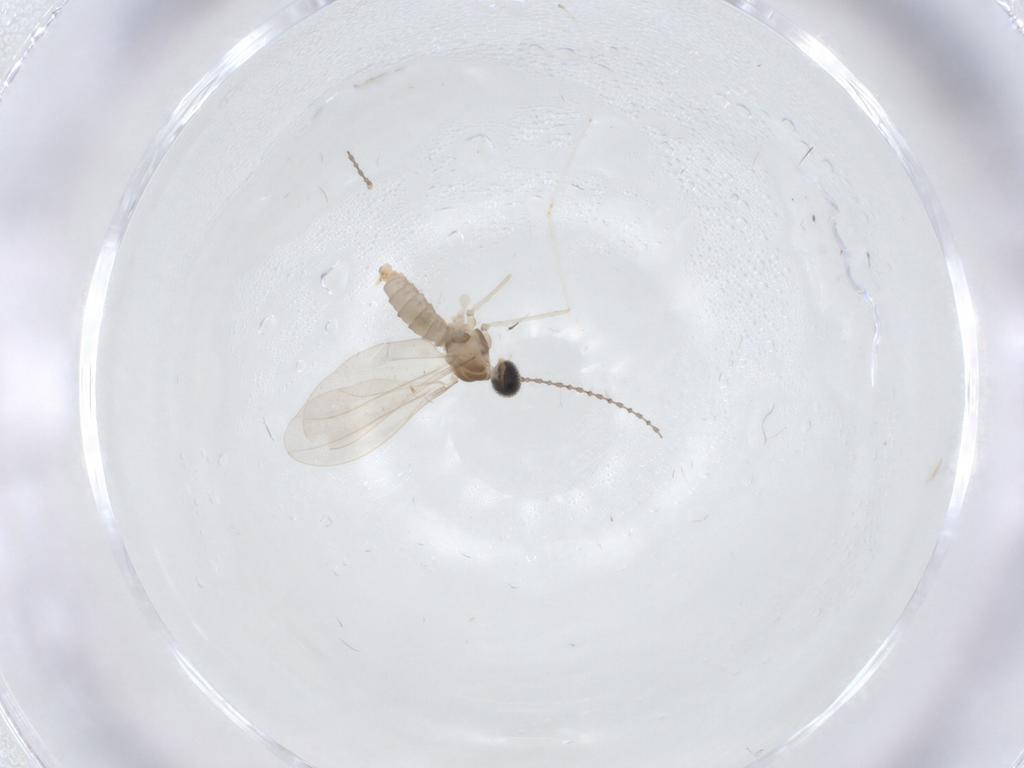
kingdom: Animalia
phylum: Arthropoda
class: Insecta
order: Diptera
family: Cecidomyiidae
